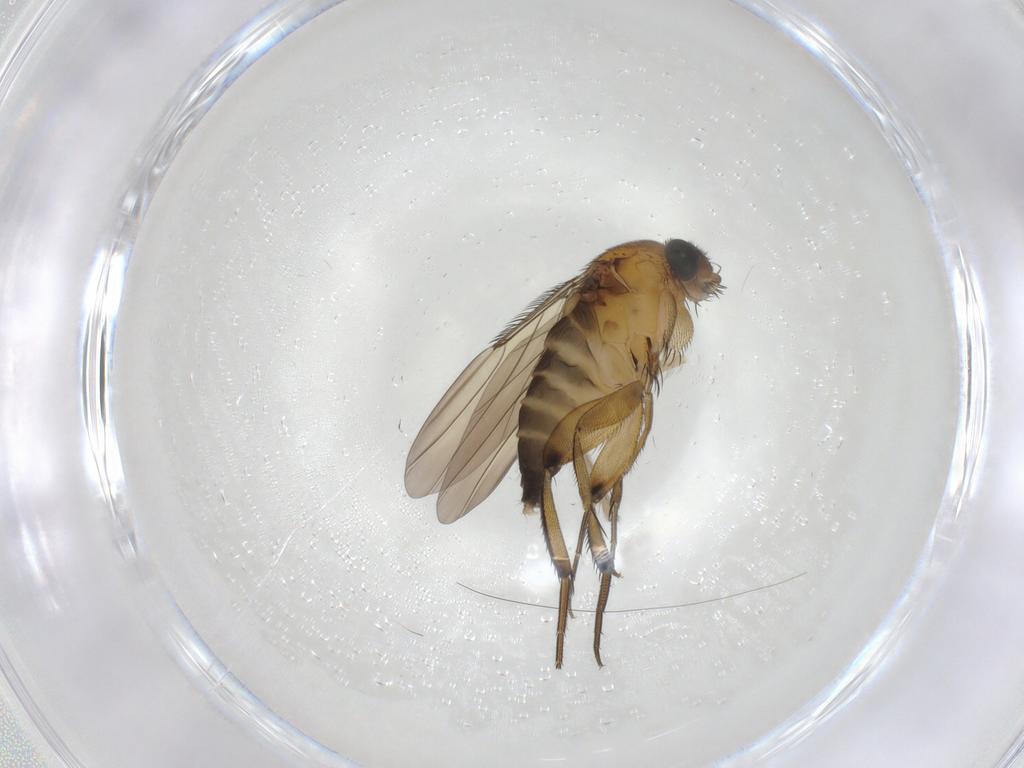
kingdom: Animalia
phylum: Arthropoda
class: Insecta
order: Diptera
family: Phoridae
